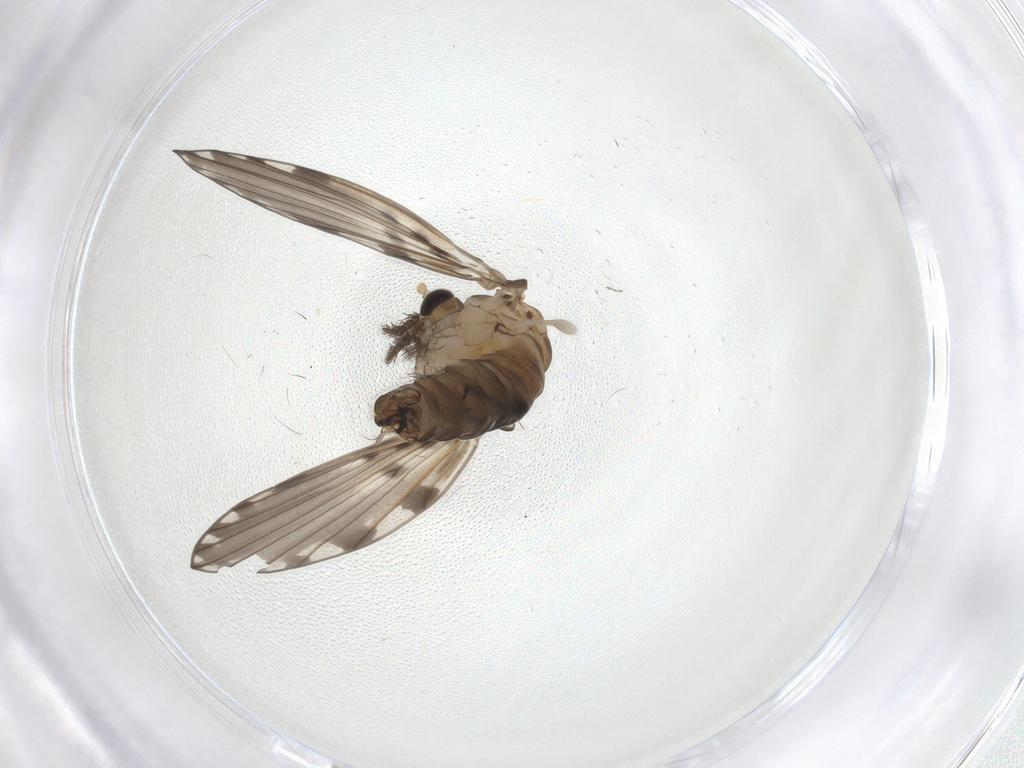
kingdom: Animalia
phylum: Arthropoda
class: Insecta
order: Diptera
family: Psychodidae
